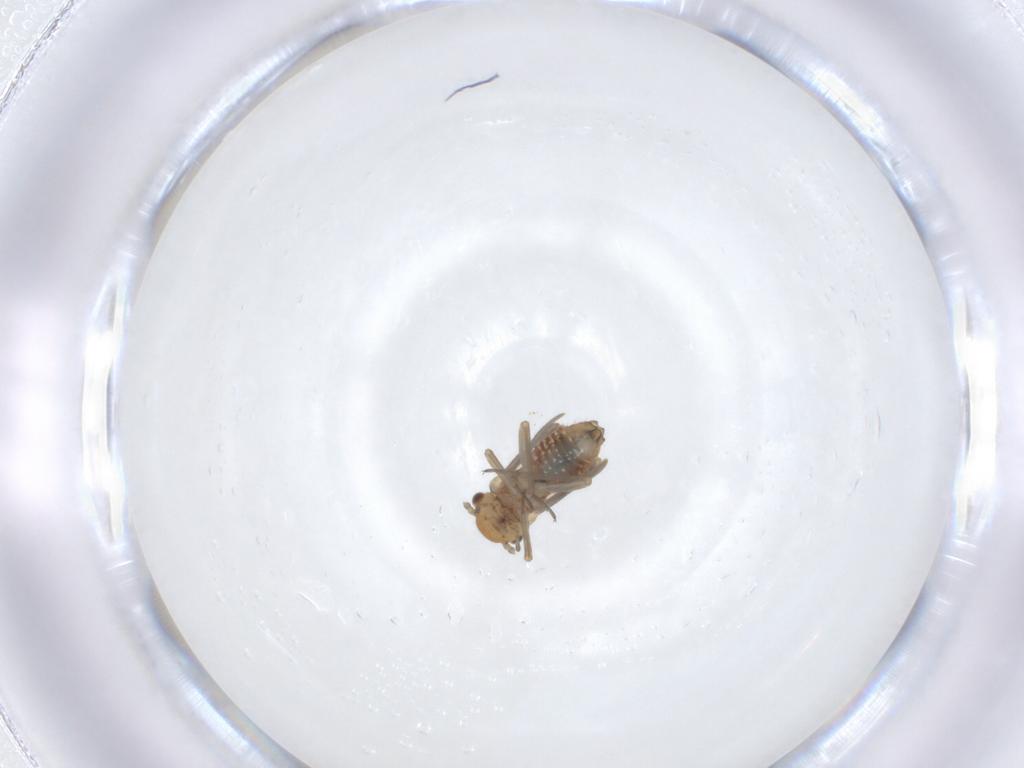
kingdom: Animalia
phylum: Arthropoda
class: Insecta
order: Psocodea
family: Lachesillidae
